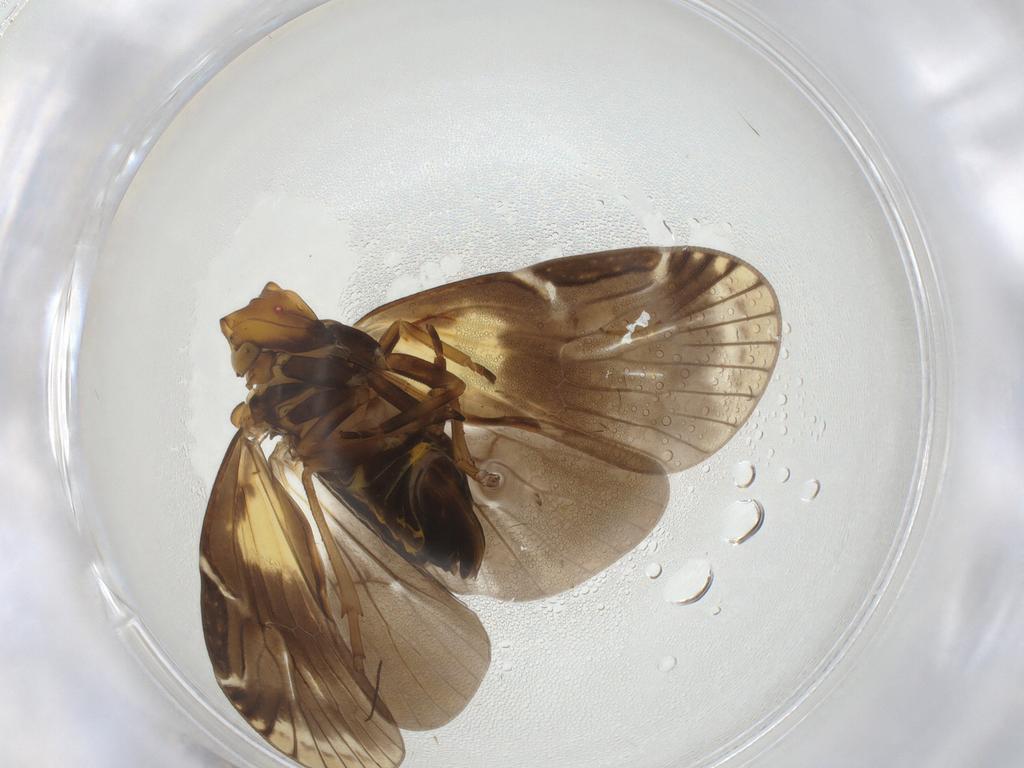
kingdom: Animalia
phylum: Arthropoda
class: Insecta
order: Hemiptera
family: Cixiidae
